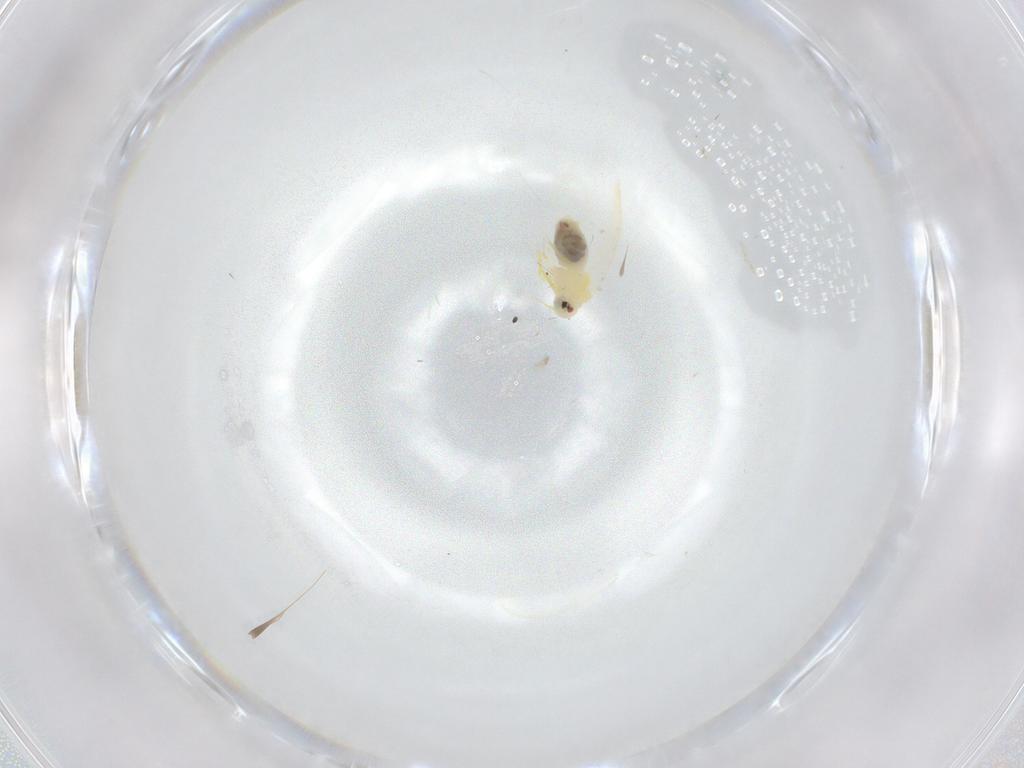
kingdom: Animalia
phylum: Arthropoda
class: Insecta
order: Hemiptera
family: Aleyrodidae
